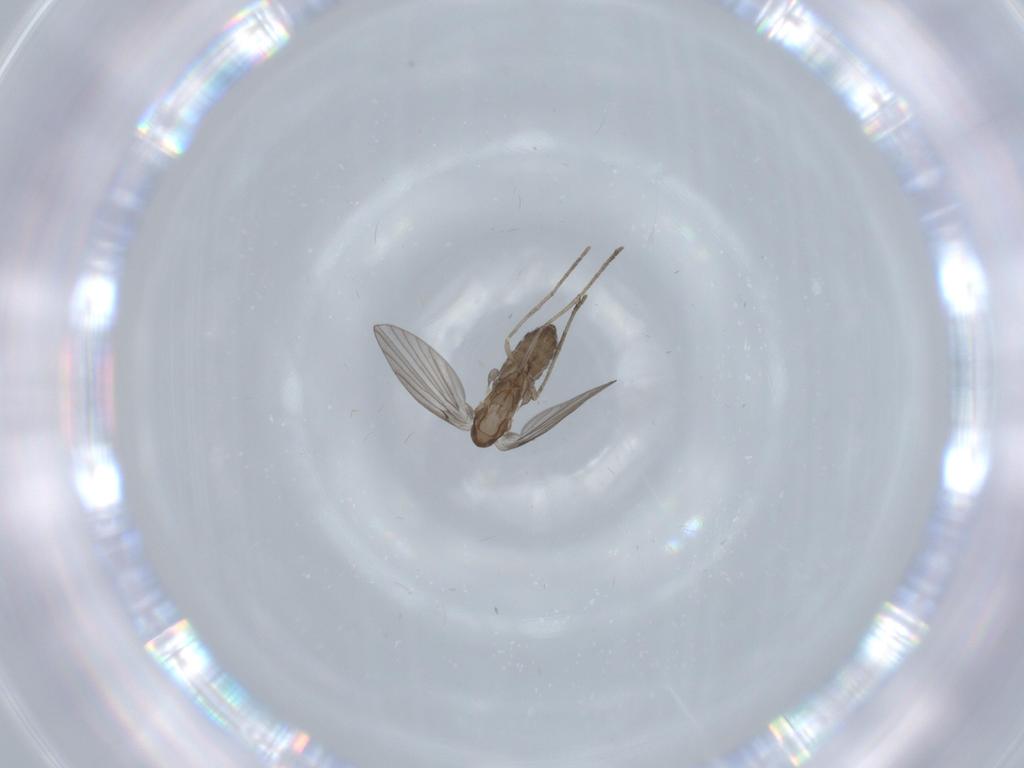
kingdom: Animalia
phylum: Arthropoda
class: Insecta
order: Diptera
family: Psychodidae
